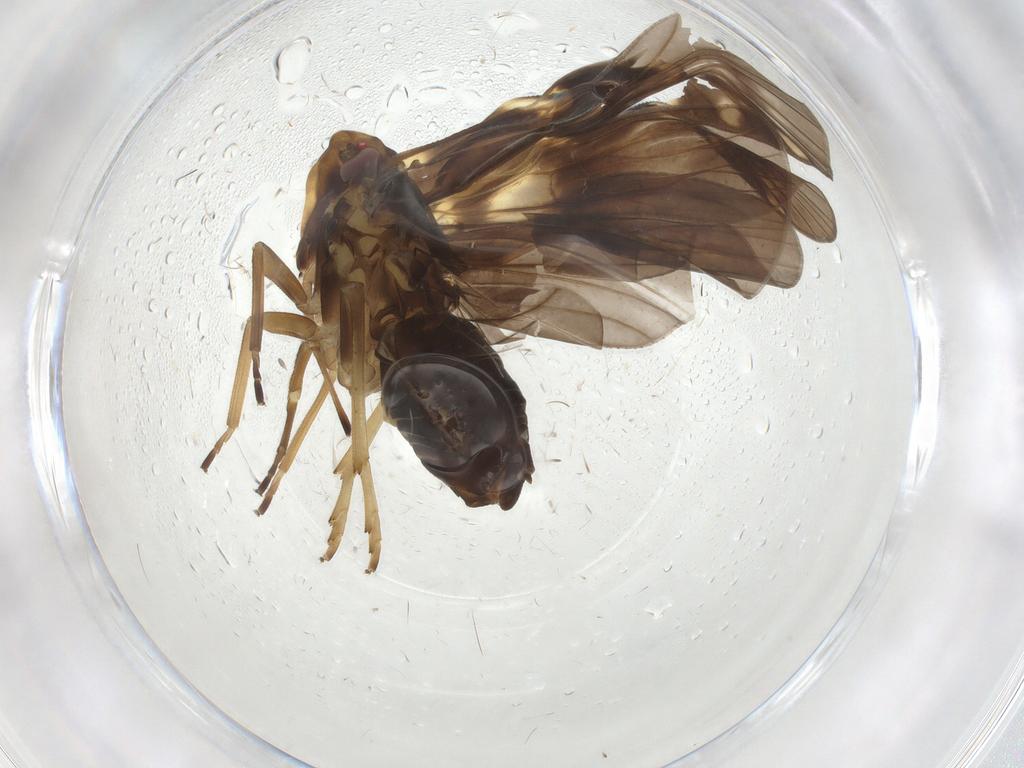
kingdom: Animalia
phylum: Arthropoda
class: Insecta
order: Hemiptera
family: Cixiidae
